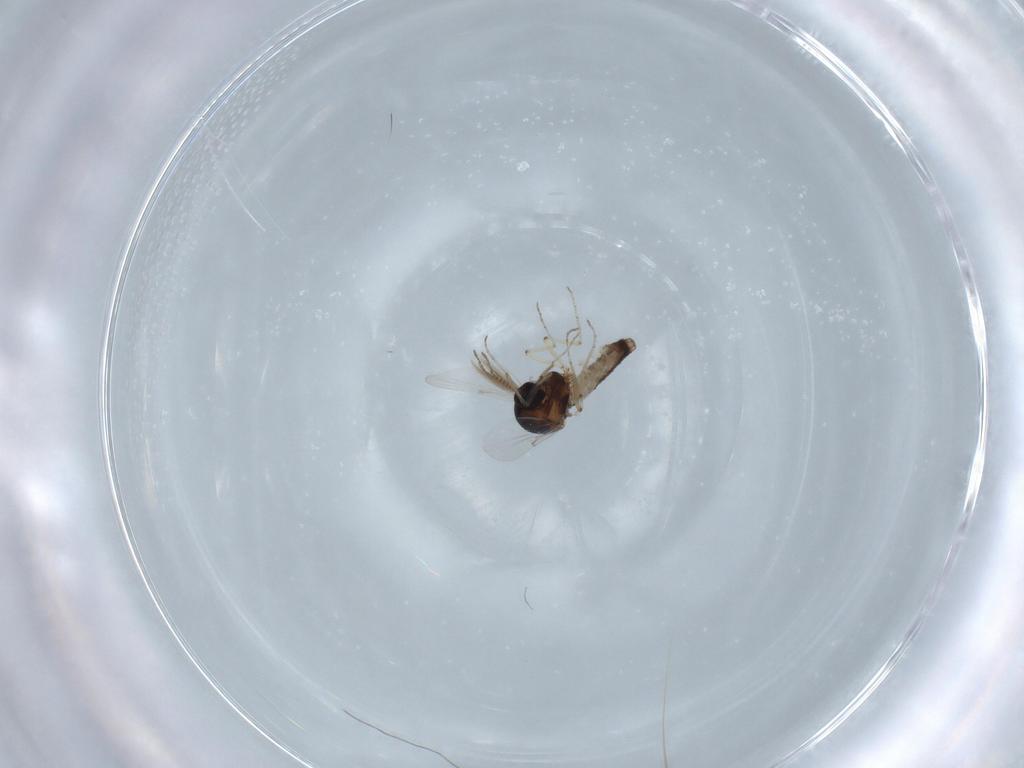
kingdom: Animalia
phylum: Arthropoda
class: Insecta
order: Diptera
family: Ceratopogonidae
